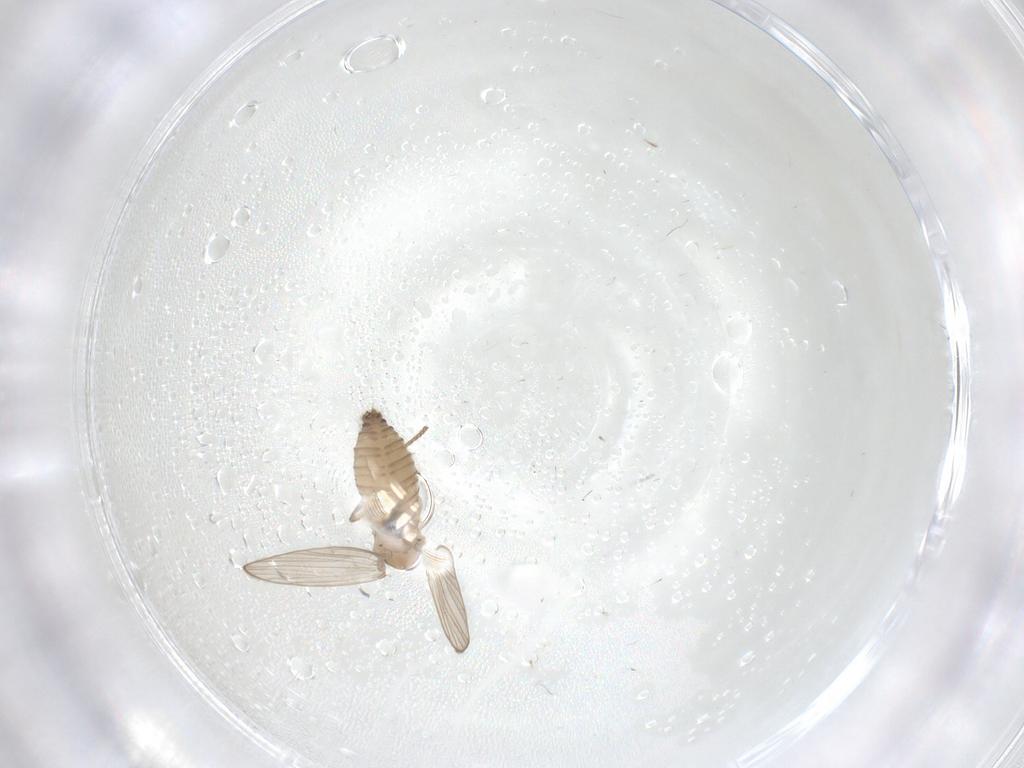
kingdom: Animalia
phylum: Arthropoda
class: Insecta
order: Diptera
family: Psychodidae
